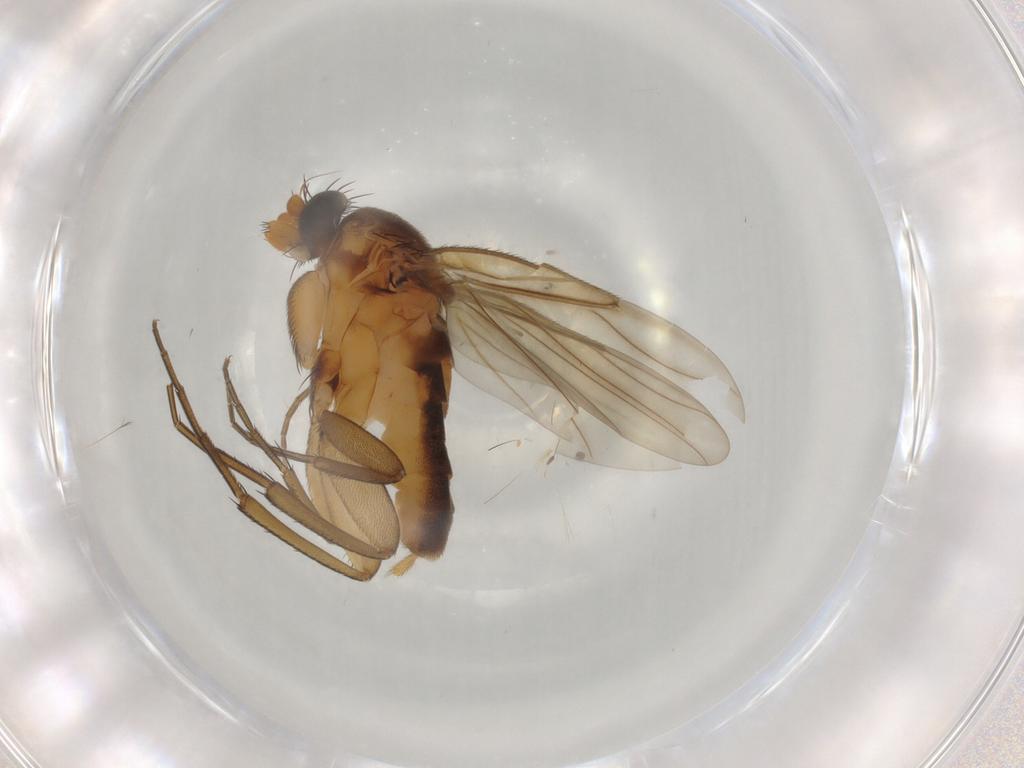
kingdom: Animalia
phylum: Arthropoda
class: Insecta
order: Diptera
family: Phoridae
